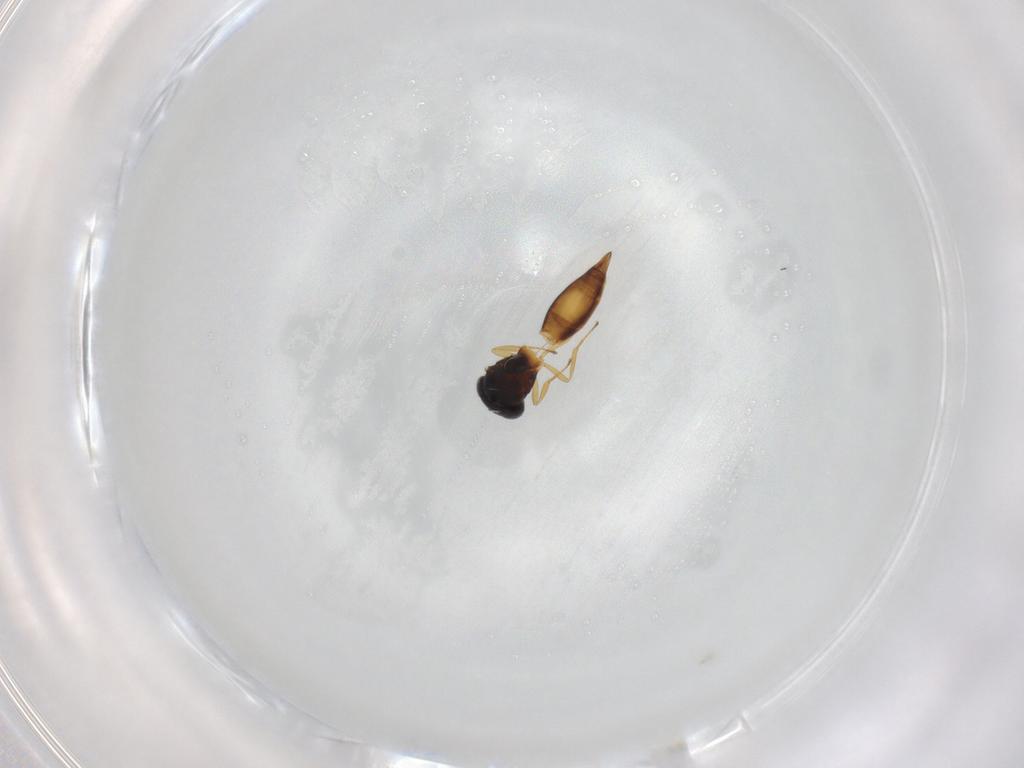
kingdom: Animalia
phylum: Arthropoda
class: Insecta
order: Hymenoptera
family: Scelionidae
